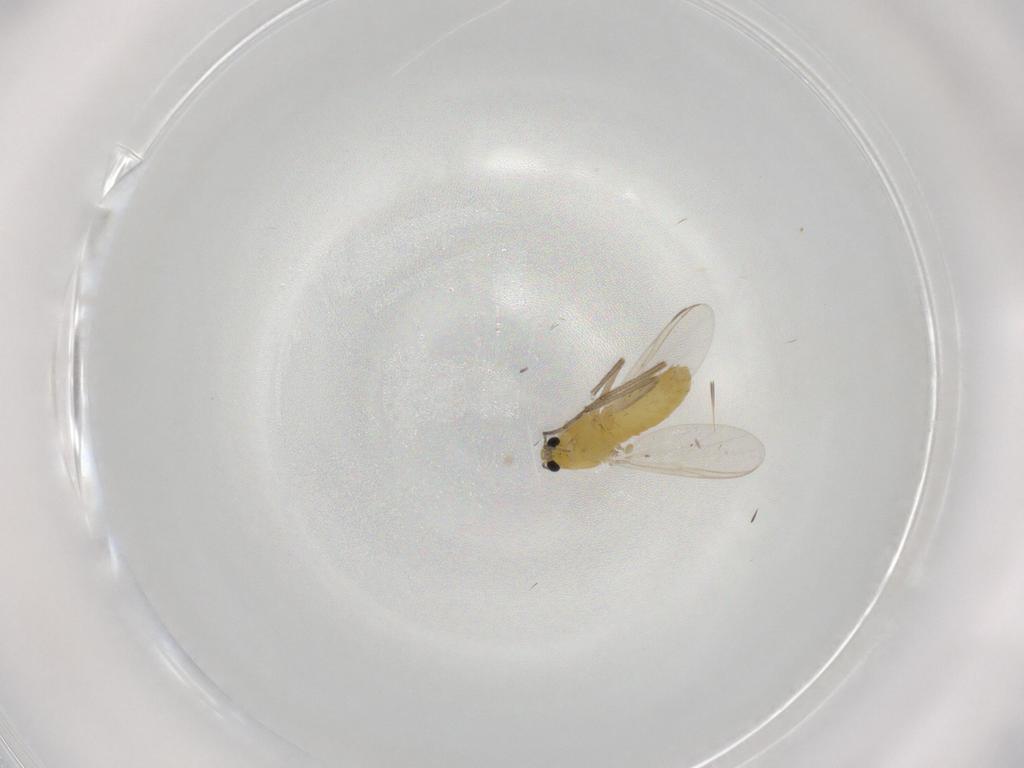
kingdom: Animalia
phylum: Arthropoda
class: Insecta
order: Diptera
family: Chironomidae
